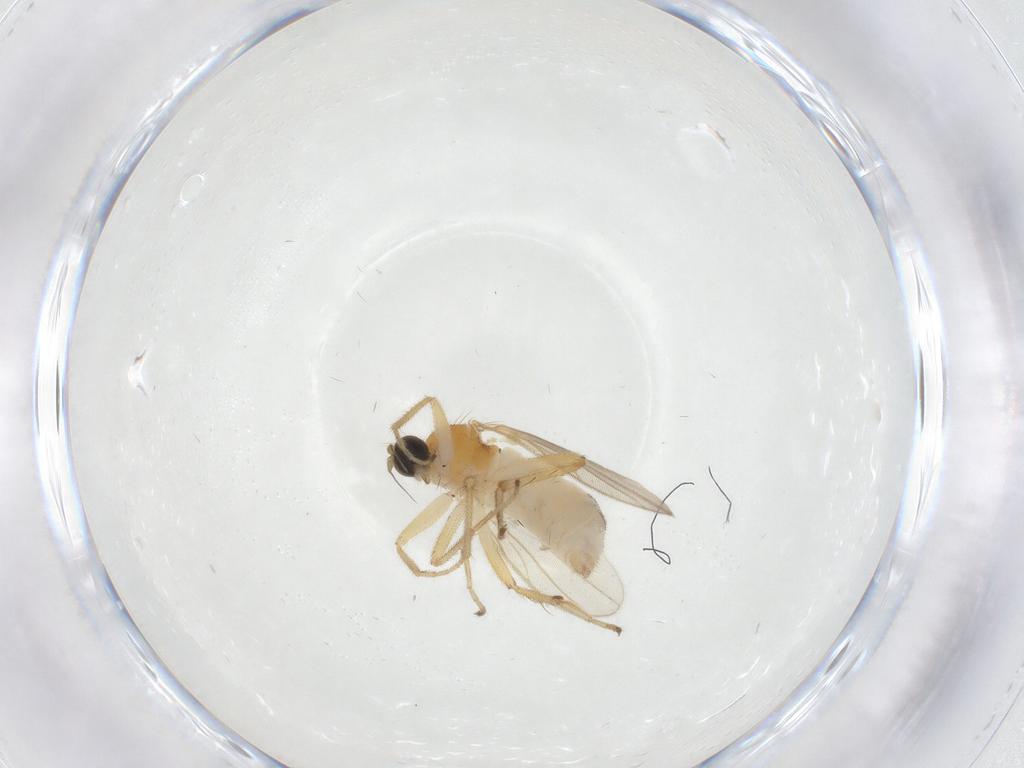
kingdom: Animalia
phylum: Arthropoda
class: Insecta
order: Diptera
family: Hybotidae
